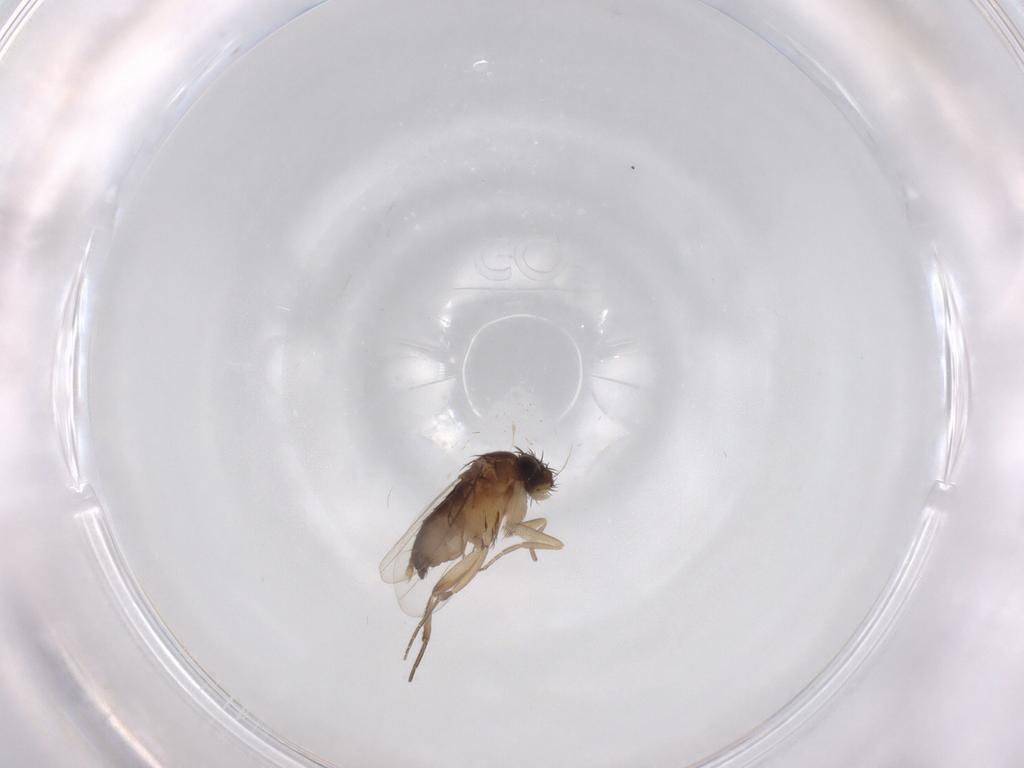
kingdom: Animalia
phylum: Arthropoda
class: Insecta
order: Diptera
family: Phoridae
